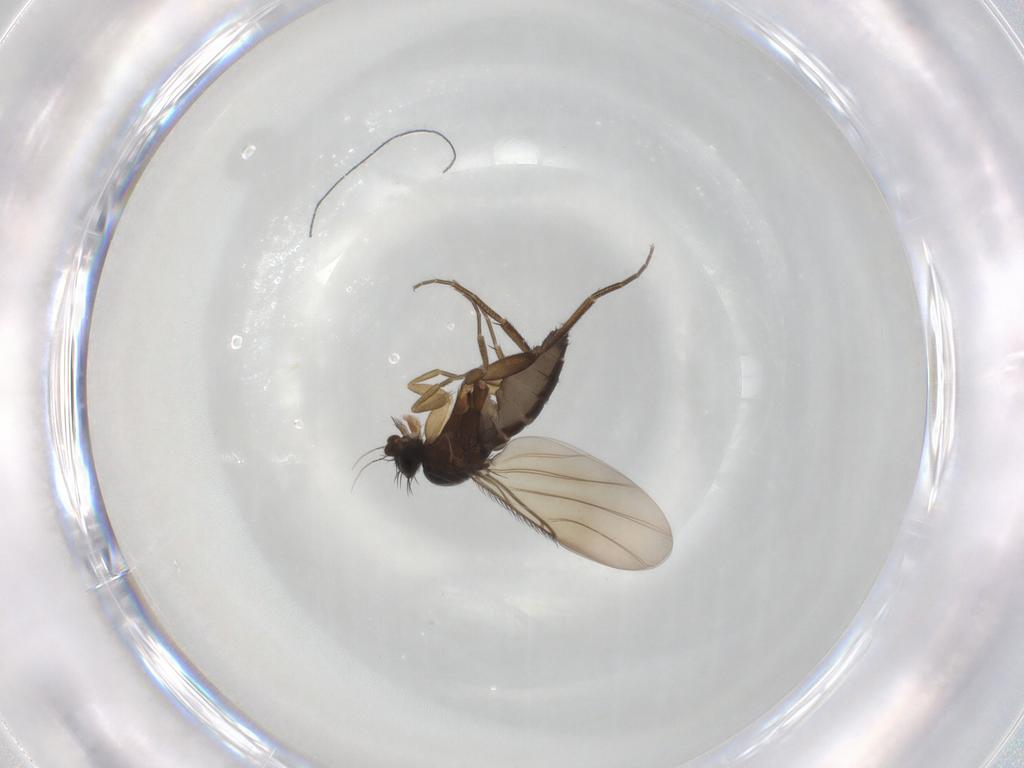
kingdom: Animalia
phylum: Arthropoda
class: Insecta
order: Diptera
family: Phoridae
